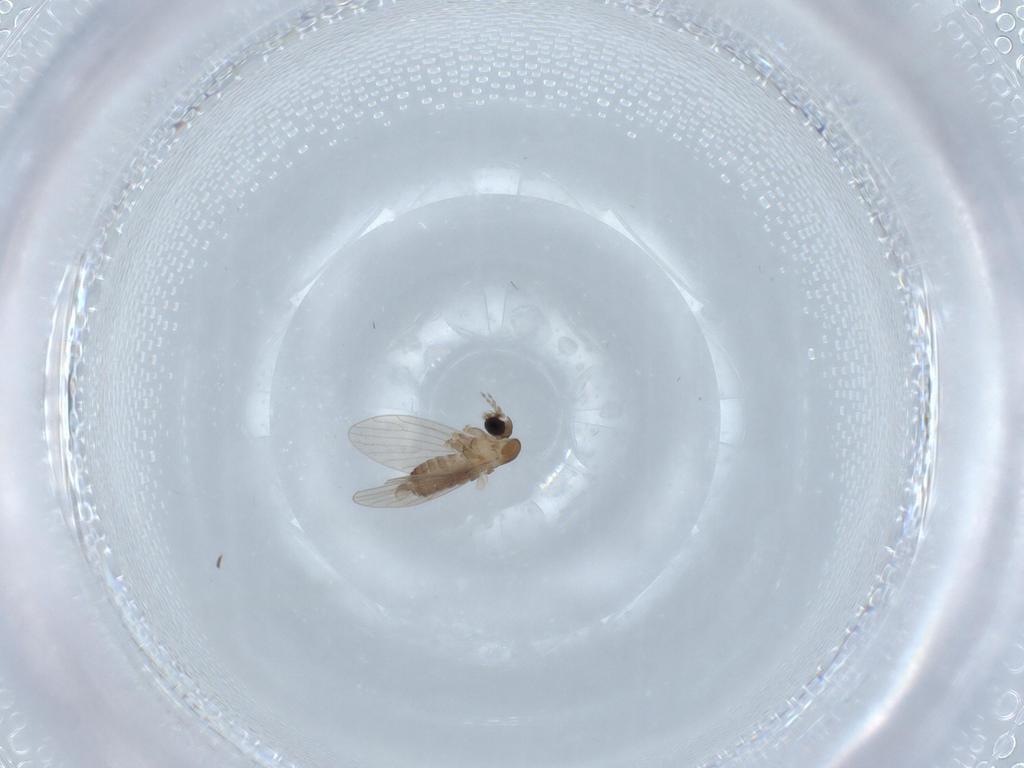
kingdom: Animalia
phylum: Arthropoda
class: Insecta
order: Diptera
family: Psychodidae
